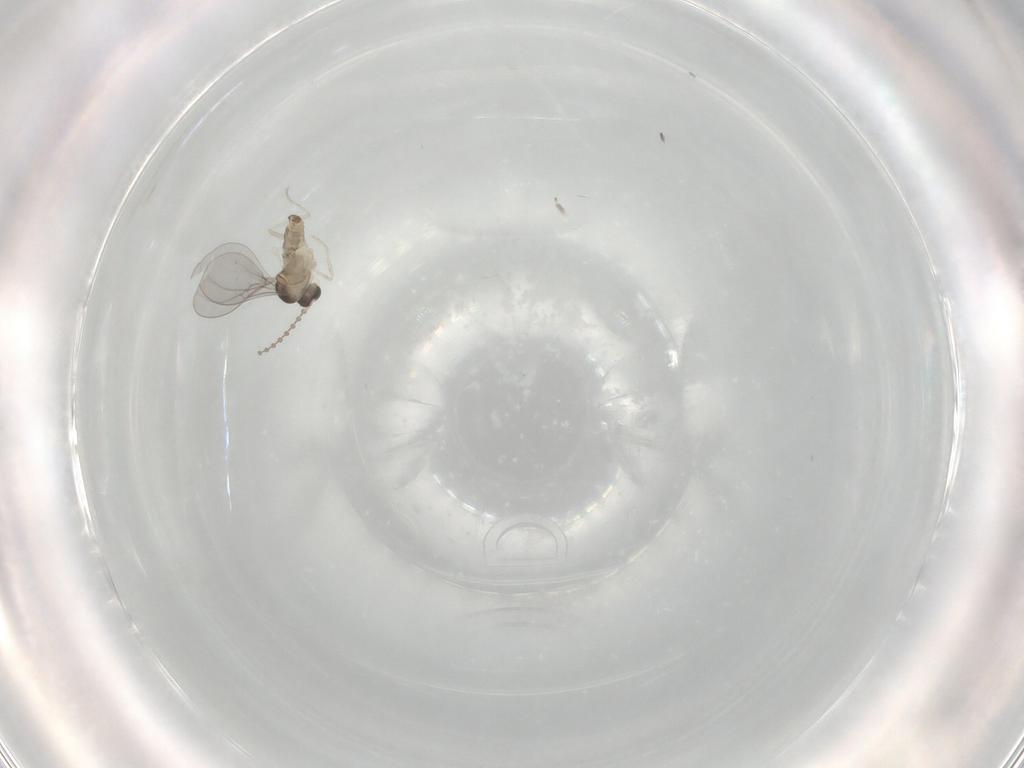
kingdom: Animalia
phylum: Arthropoda
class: Insecta
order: Diptera
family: Cecidomyiidae
